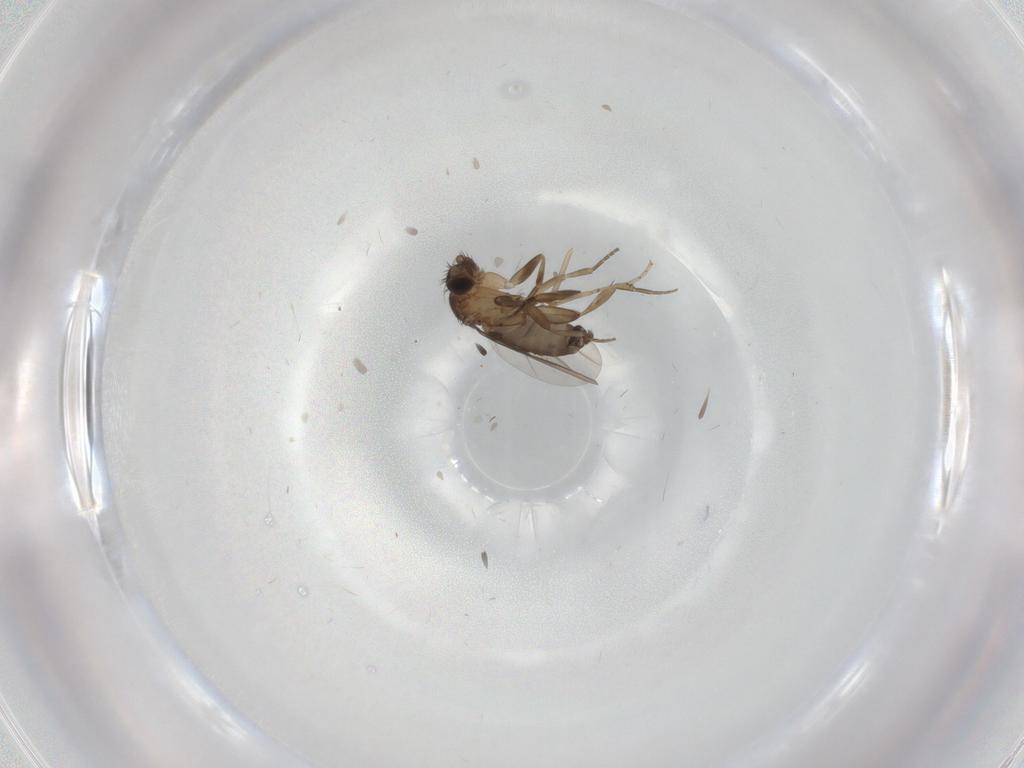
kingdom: Animalia
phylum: Arthropoda
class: Insecta
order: Diptera
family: Cecidomyiidae
